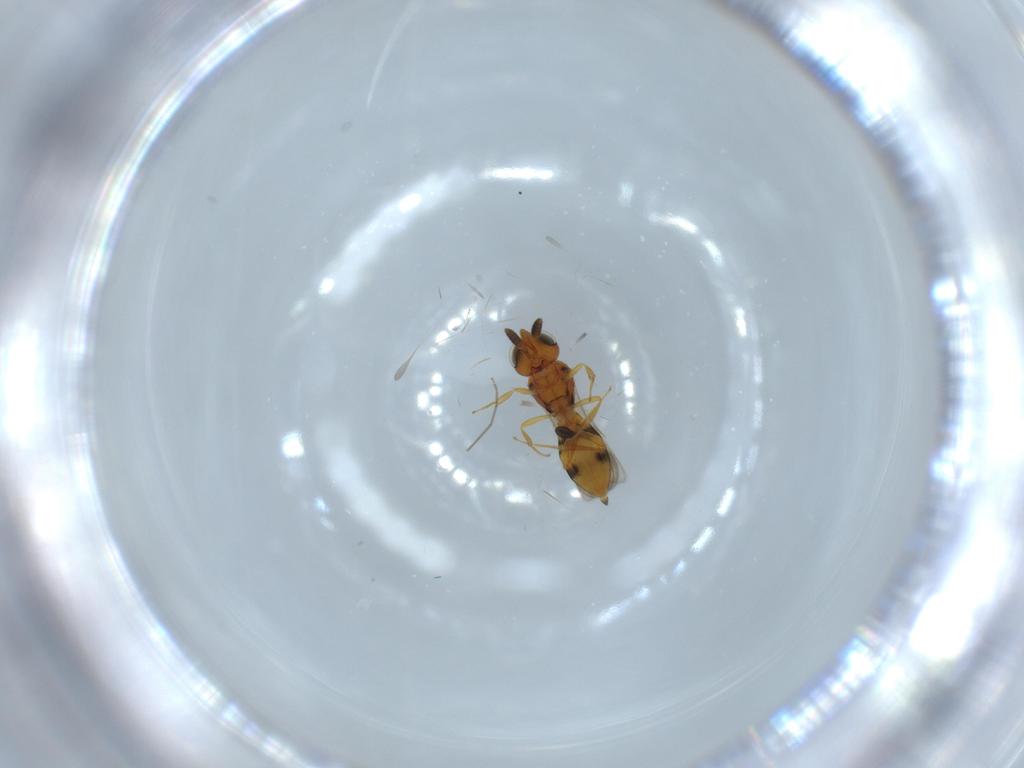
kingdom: Animalia
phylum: Arthropoda
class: Insecta
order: Hymenoptera
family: Scelionidae
